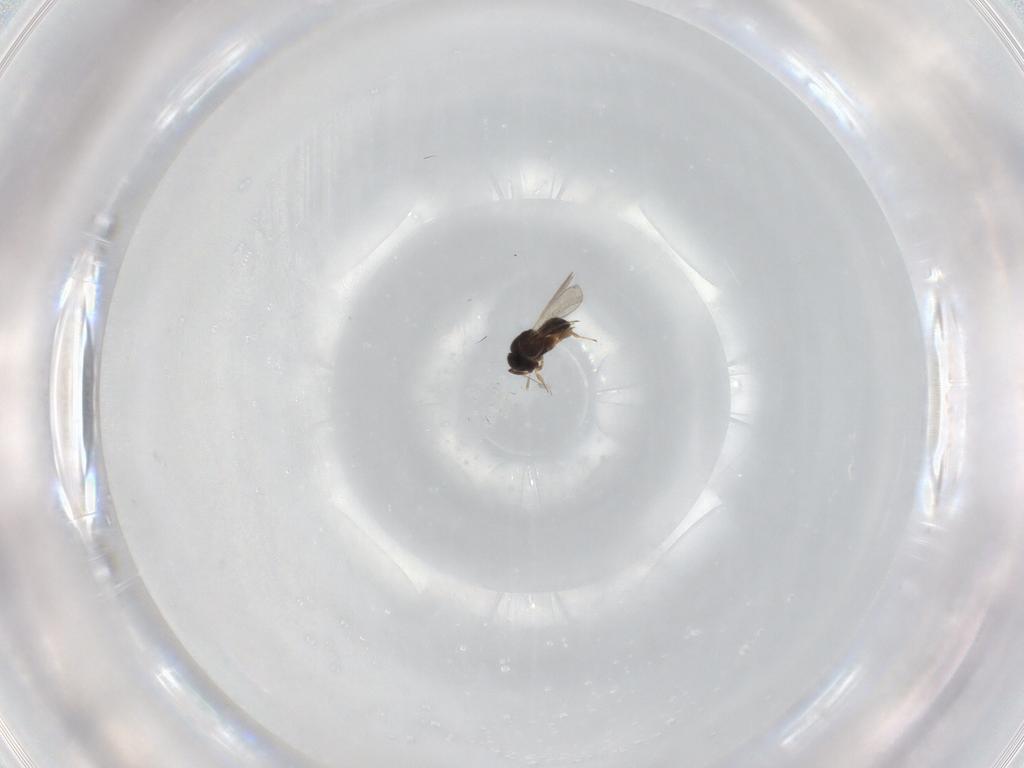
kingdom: Animalia
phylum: Arthropoda
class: Insecta
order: Hymenoptera
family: Scelionidae
